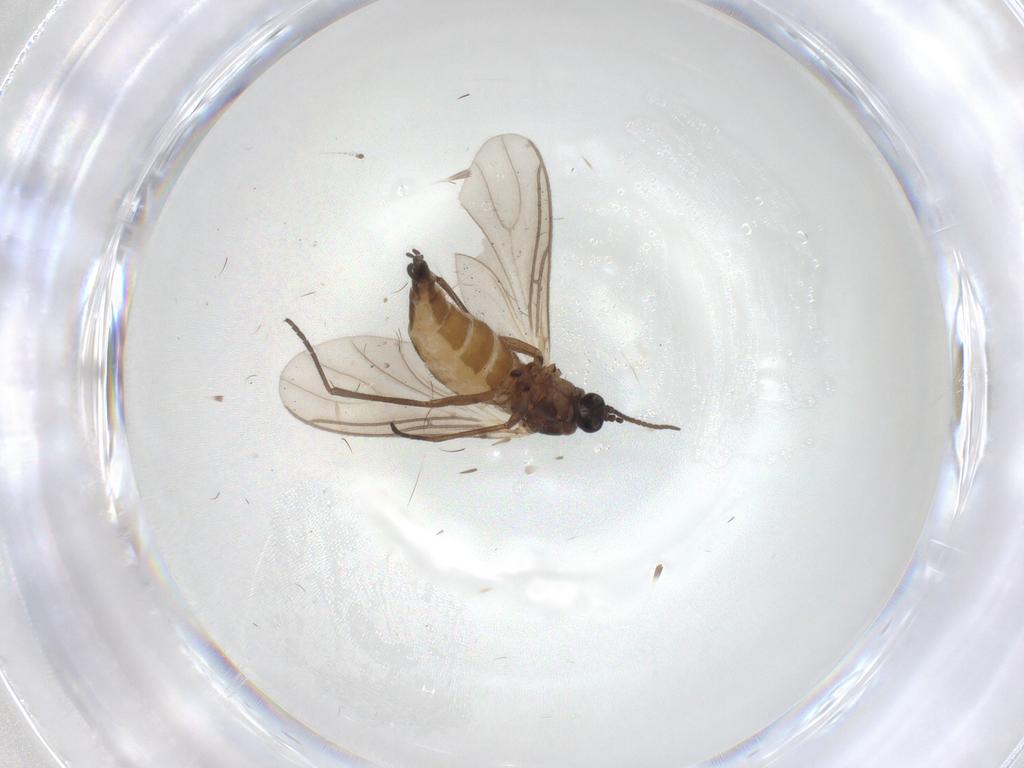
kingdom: Animalia
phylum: Arthropoda
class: Insecta
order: Diptera
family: Sciaridae
